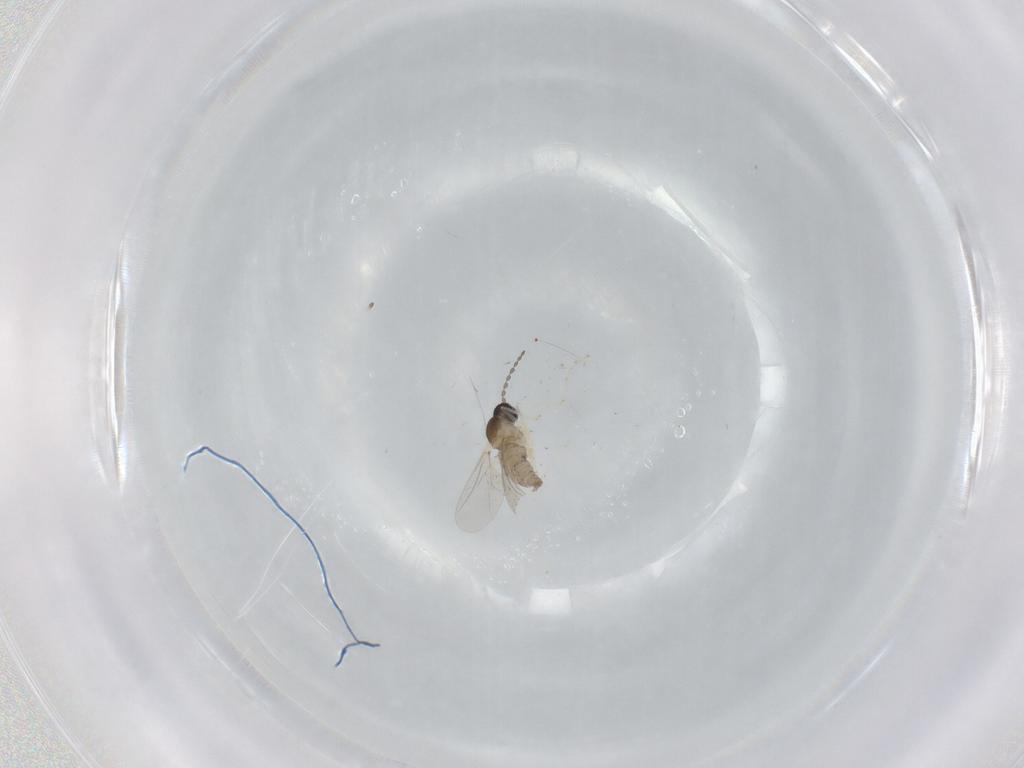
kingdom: Animalia
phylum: Arthropoda
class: Insecta
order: Diptera
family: Cecidomyiidae
